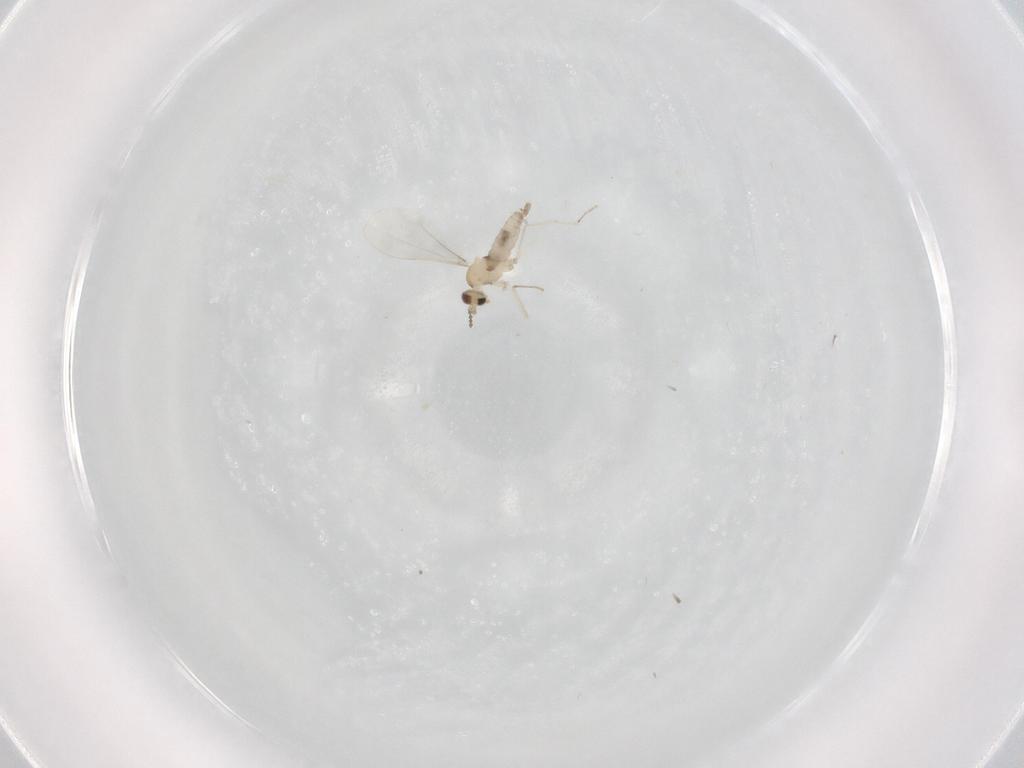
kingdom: Animalia
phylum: Arthropoda
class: Insecta
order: Diptera
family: Cecidomyiidae
